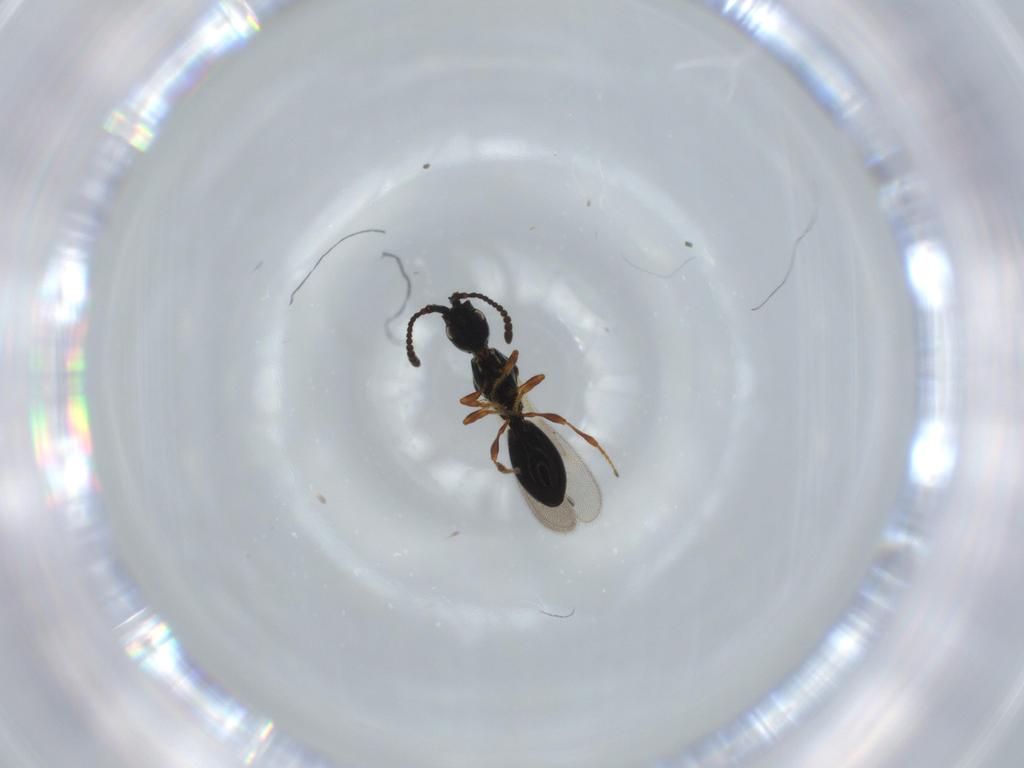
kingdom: Animalia
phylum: Arthropoda
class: Insecta
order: Hymenoptera
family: Diapriidae
